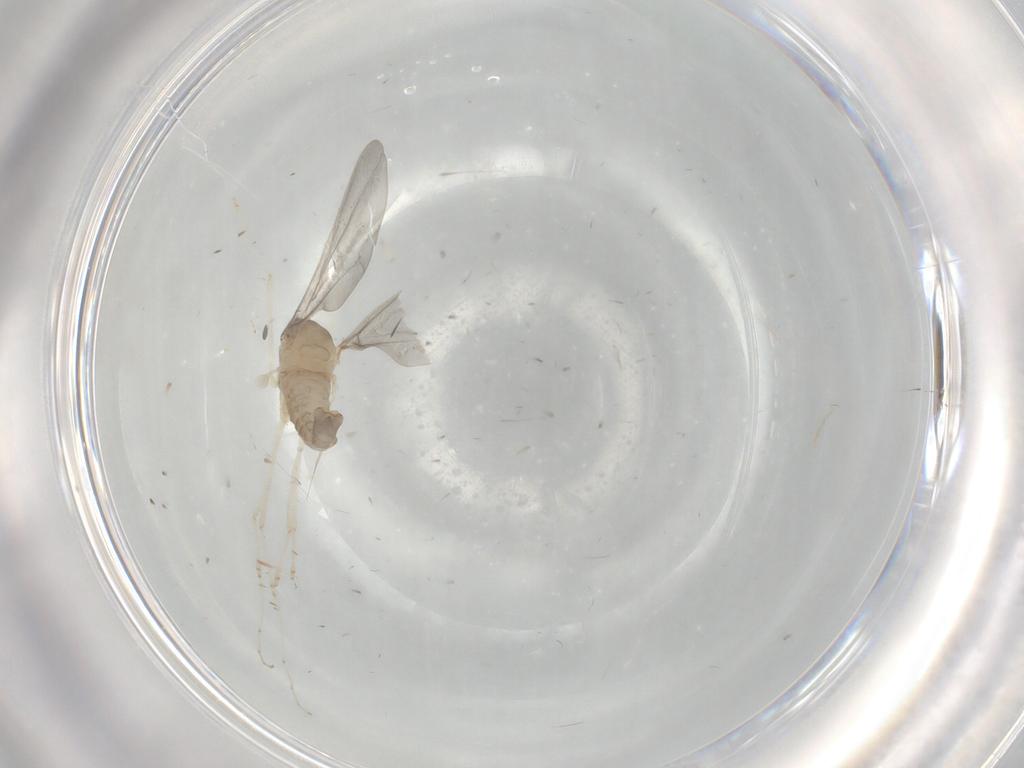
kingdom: Animalia
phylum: Arthropoda
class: Insecta
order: Diptera
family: Cecidomyiidae
